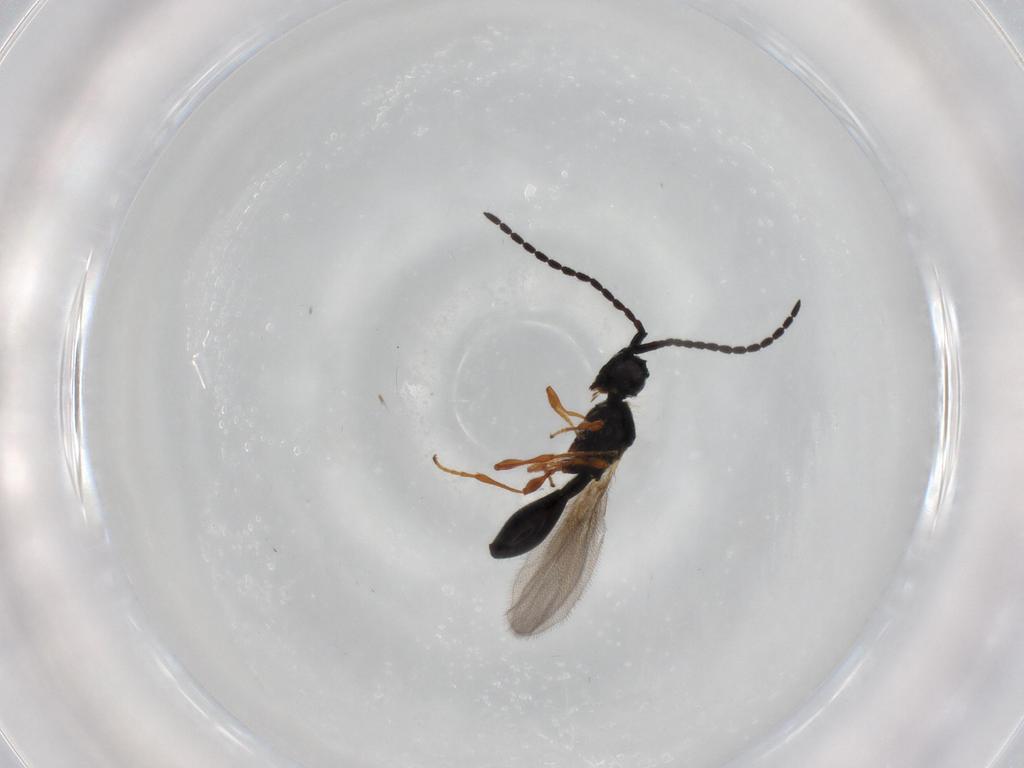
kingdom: Animalia
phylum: Arthropoda
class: Insecta
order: Hymenoptera
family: Diapriidae
